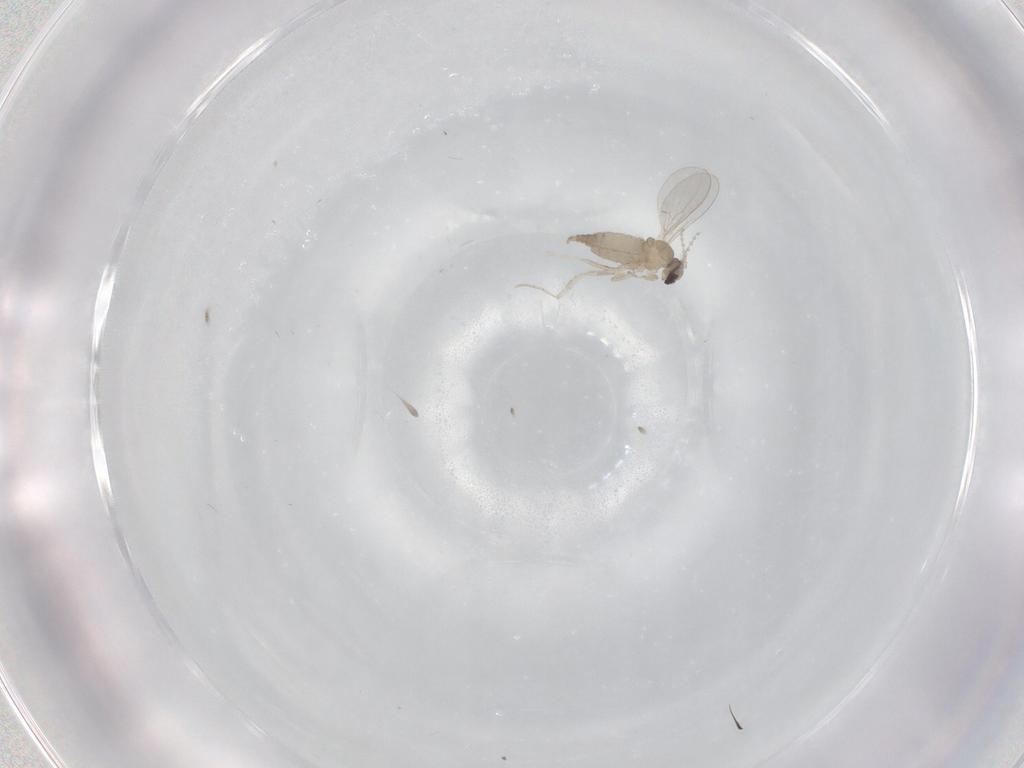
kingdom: Animalia
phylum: Arthropoda
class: Insecta
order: Diptera
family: Cecidomyiidae
